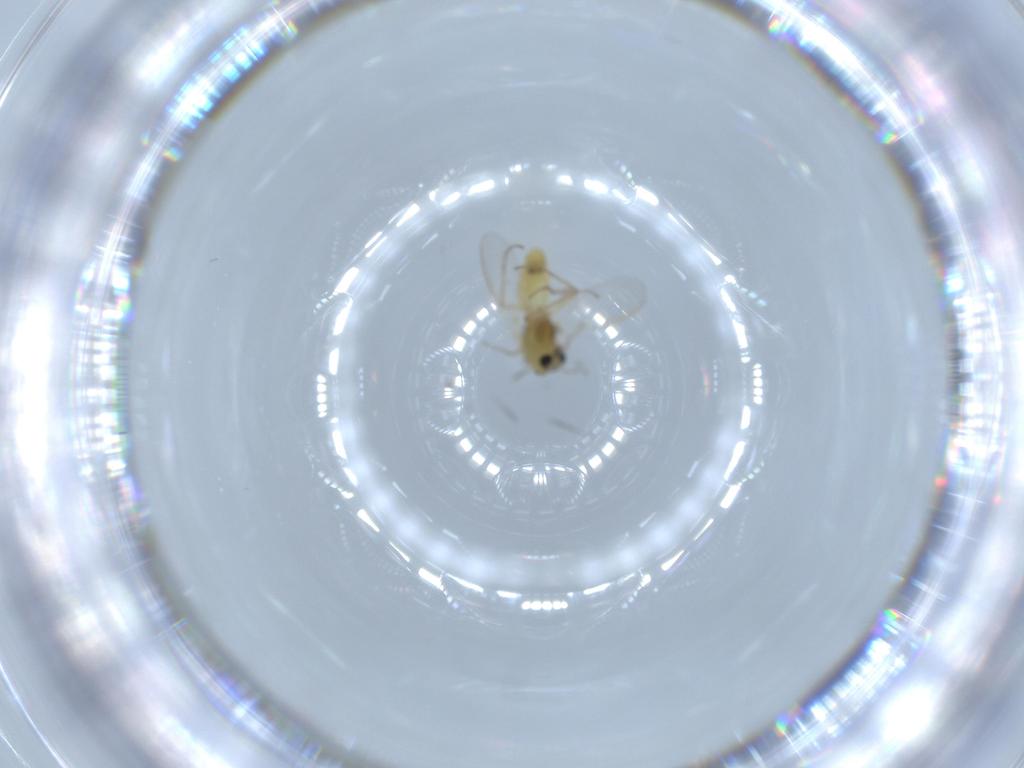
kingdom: Animalia
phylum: Arthropoda
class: Insecta
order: Diptera
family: Chironomidae
